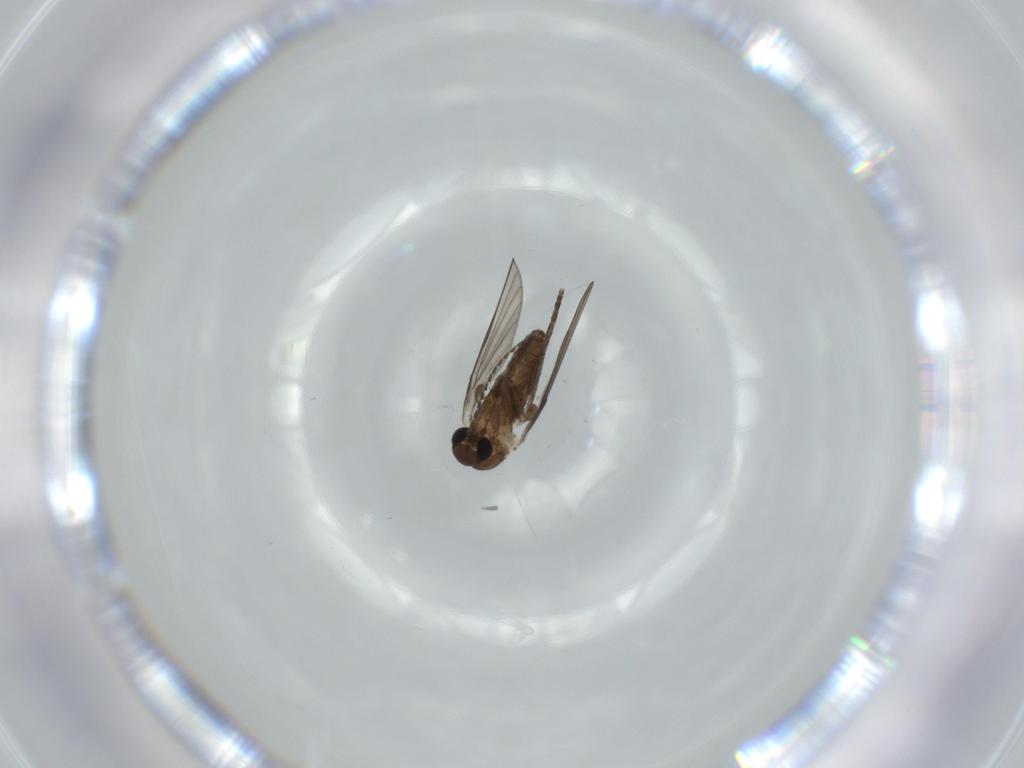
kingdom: Animalia
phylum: Arthropoda
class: Insecta
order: Diptera
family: Psychodidae
